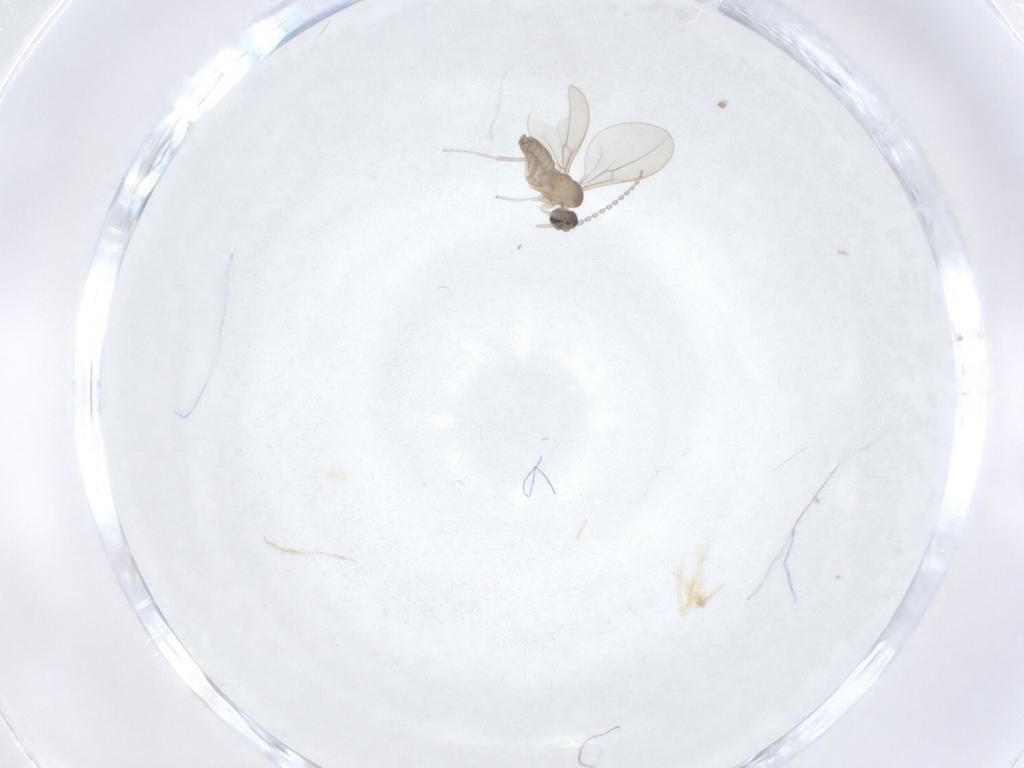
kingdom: Animalia
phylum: Arthropoda
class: Insecta
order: Diptera
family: Cecidomyiidae
